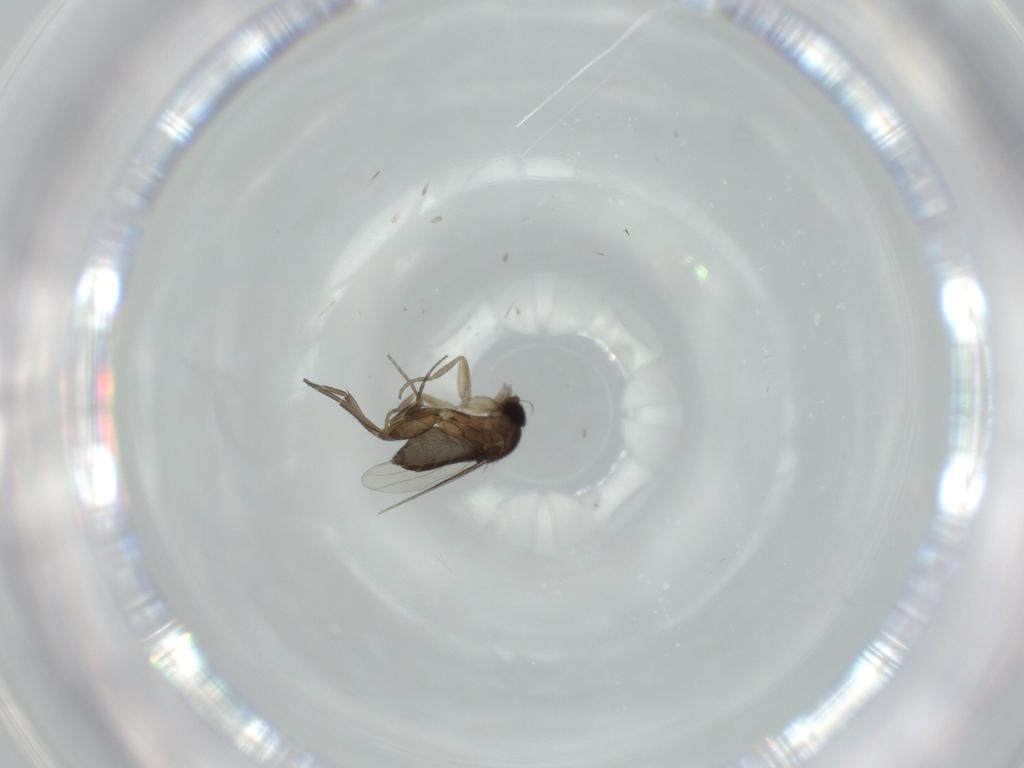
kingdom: Animalia
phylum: Arthropoda
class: Insecta
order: Diptera
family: Phoridae
